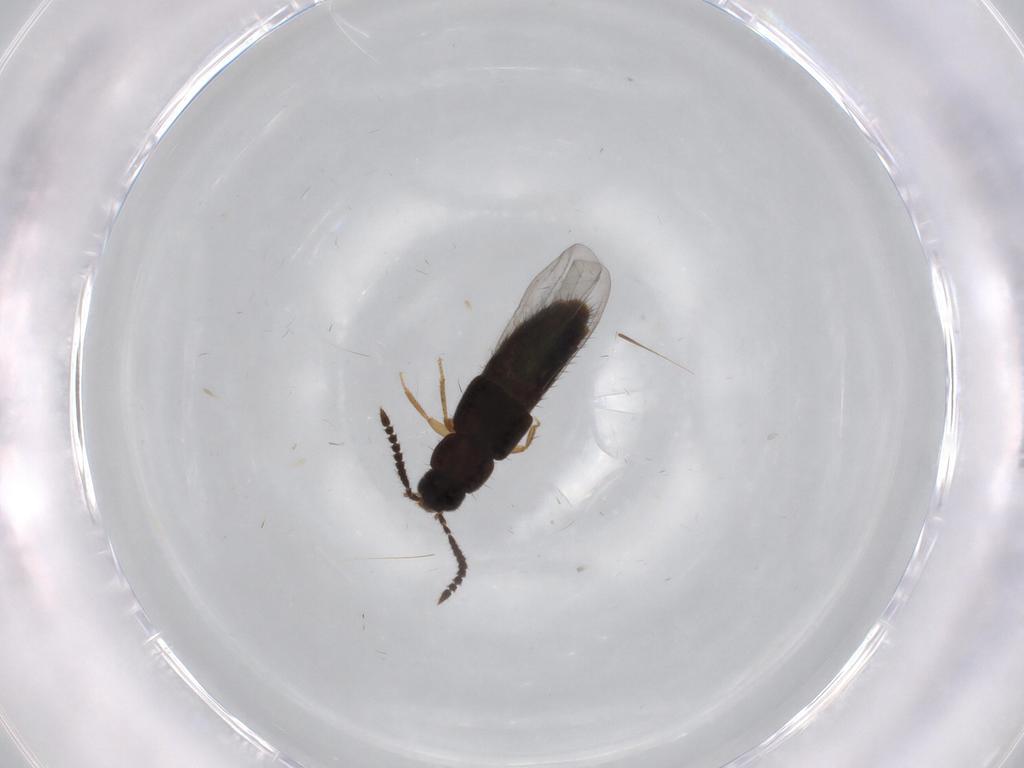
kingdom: Animalia
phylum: Arthropoda
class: Insecta
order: Coleoptera
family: Staphylinidae
